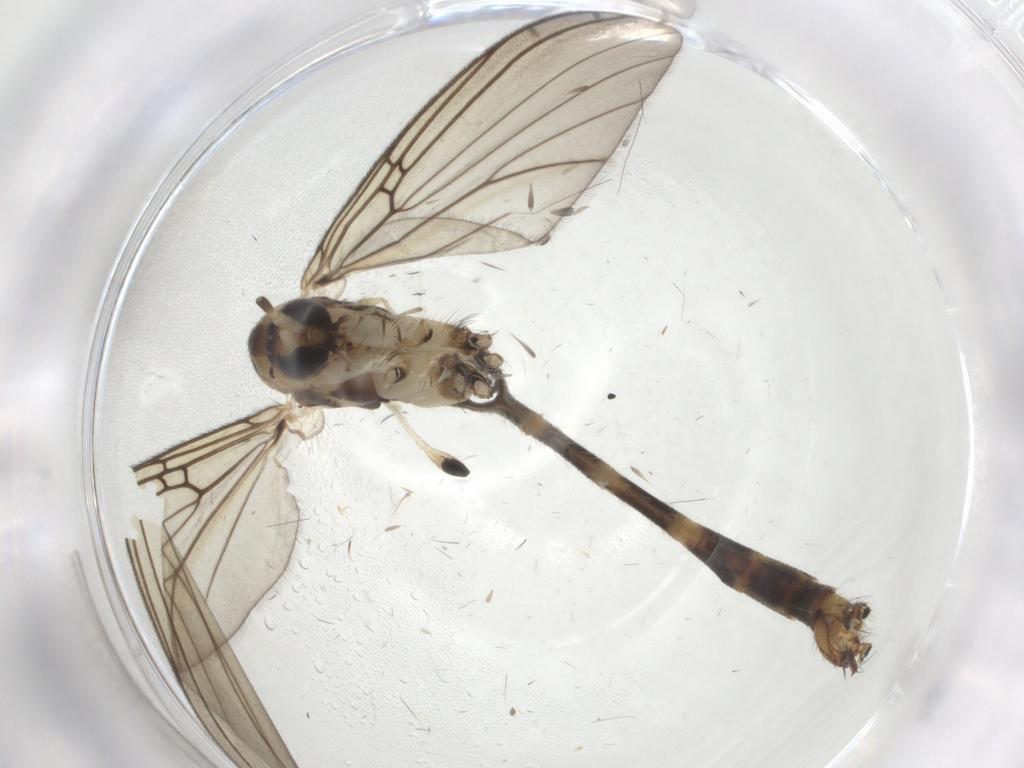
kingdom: Animalia
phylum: Arthropoda
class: Insecta
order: Diptera
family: Mycetophilidae
